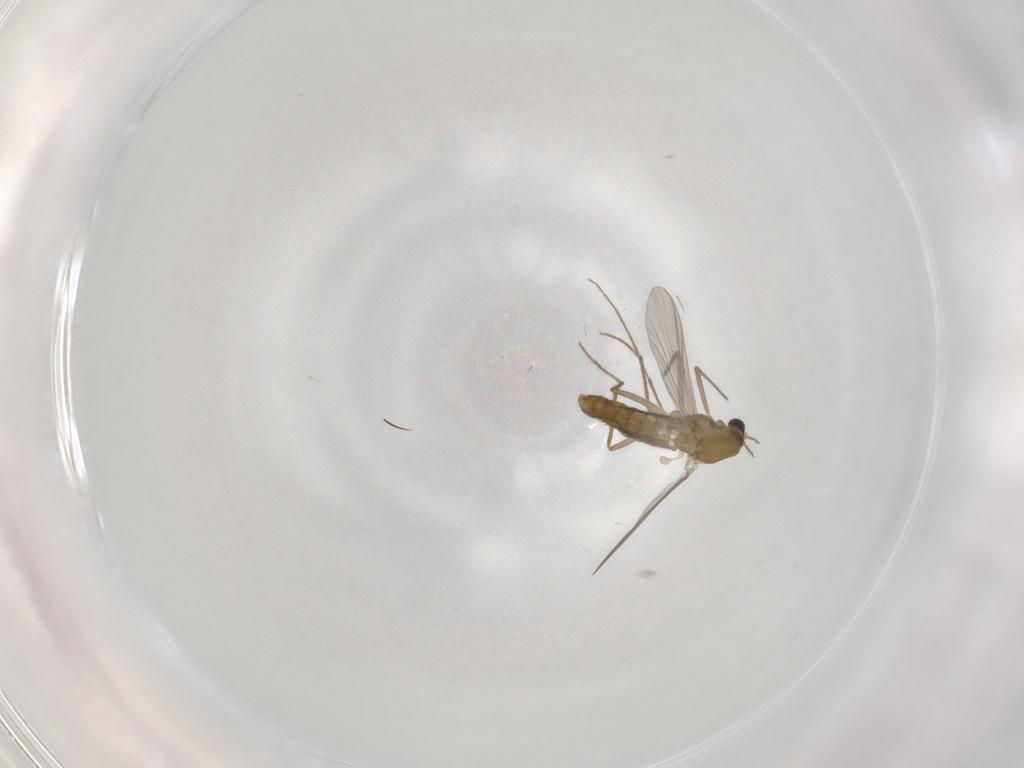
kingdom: Animalia
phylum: Arthropoda
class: Insecta
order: Diptera
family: Chironomidae
